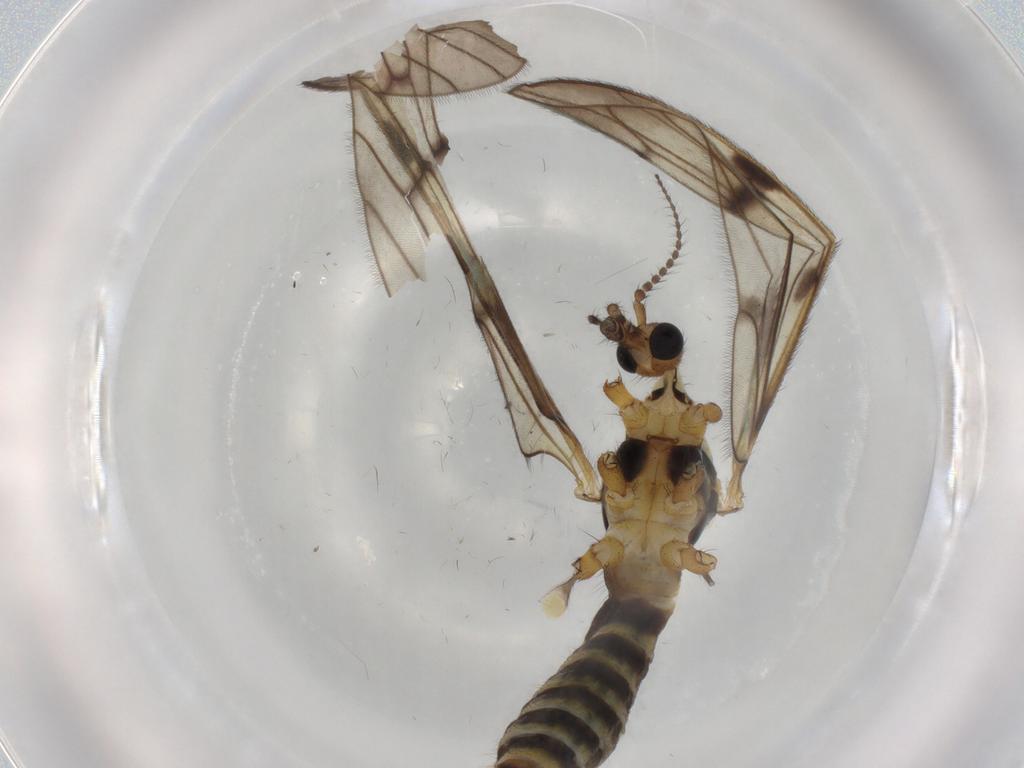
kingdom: Animalia
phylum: Arthropoda
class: Insecta
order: Diptera
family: Limoniidae
